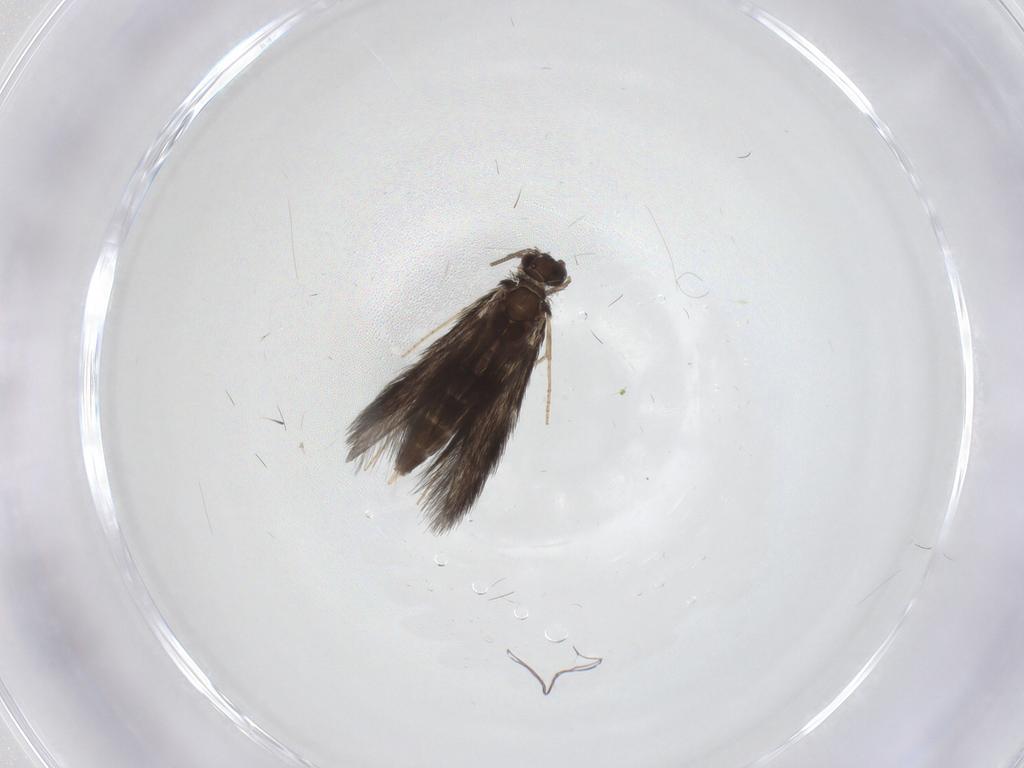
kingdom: Animalia
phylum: Arthropoda
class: Insecta
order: Trichoptera
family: Hydroptilidae
